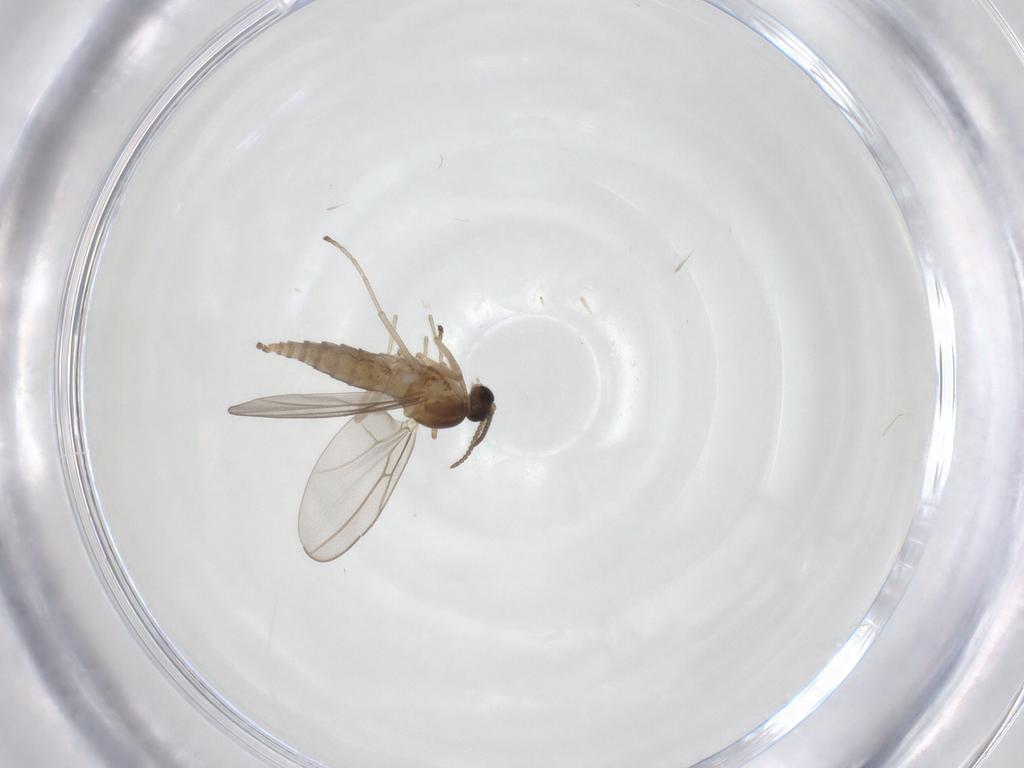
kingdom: Animalia
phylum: Arthropoda
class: Insecta
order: Diptera
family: Cecidomyiidae
